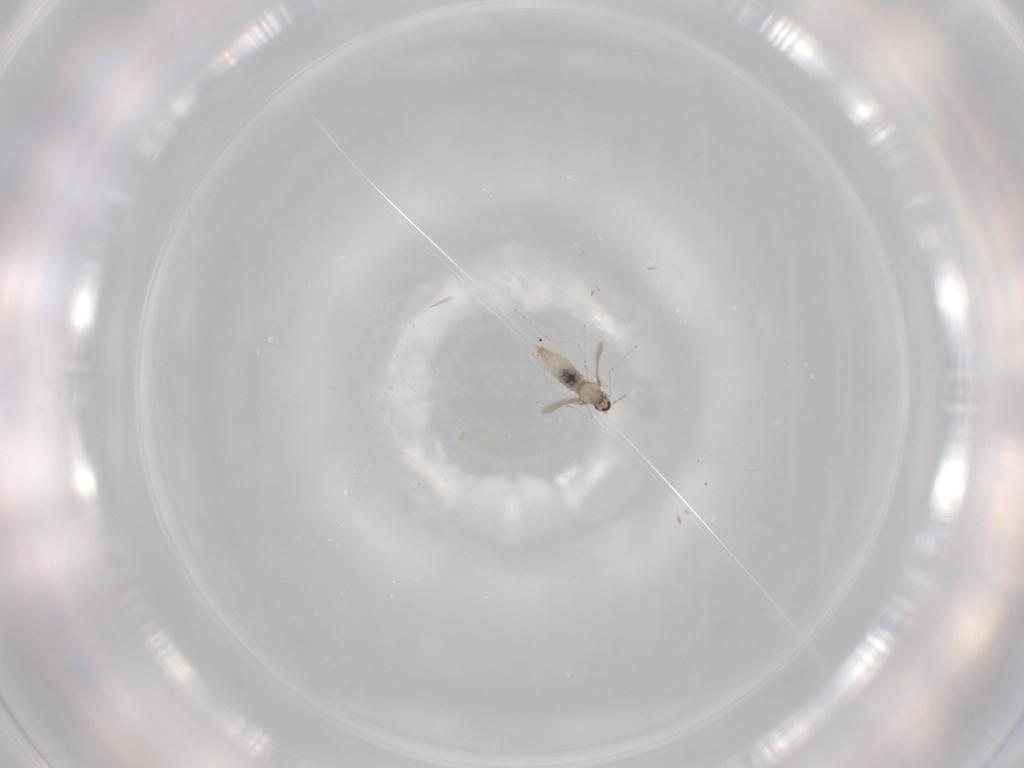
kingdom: Animalia
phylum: Arthropoda
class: Insecta
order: Diptera
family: Cecidomyiidae
